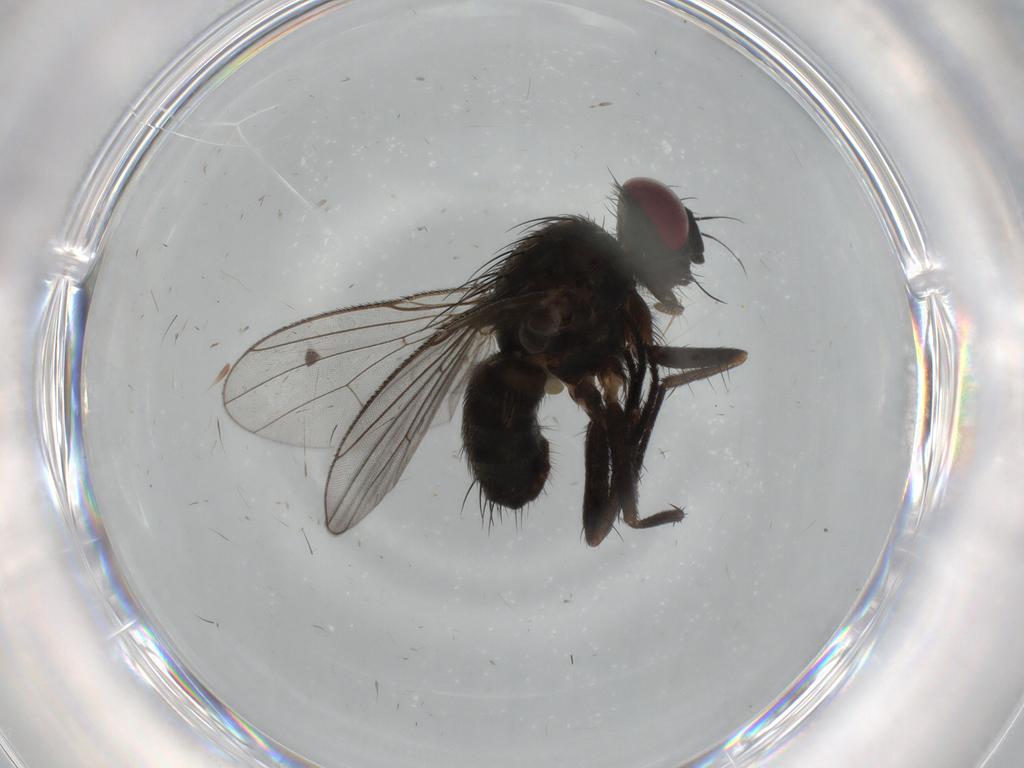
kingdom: Animalia
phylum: Arthropoda
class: Insecta
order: Diptera
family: Muscidae
